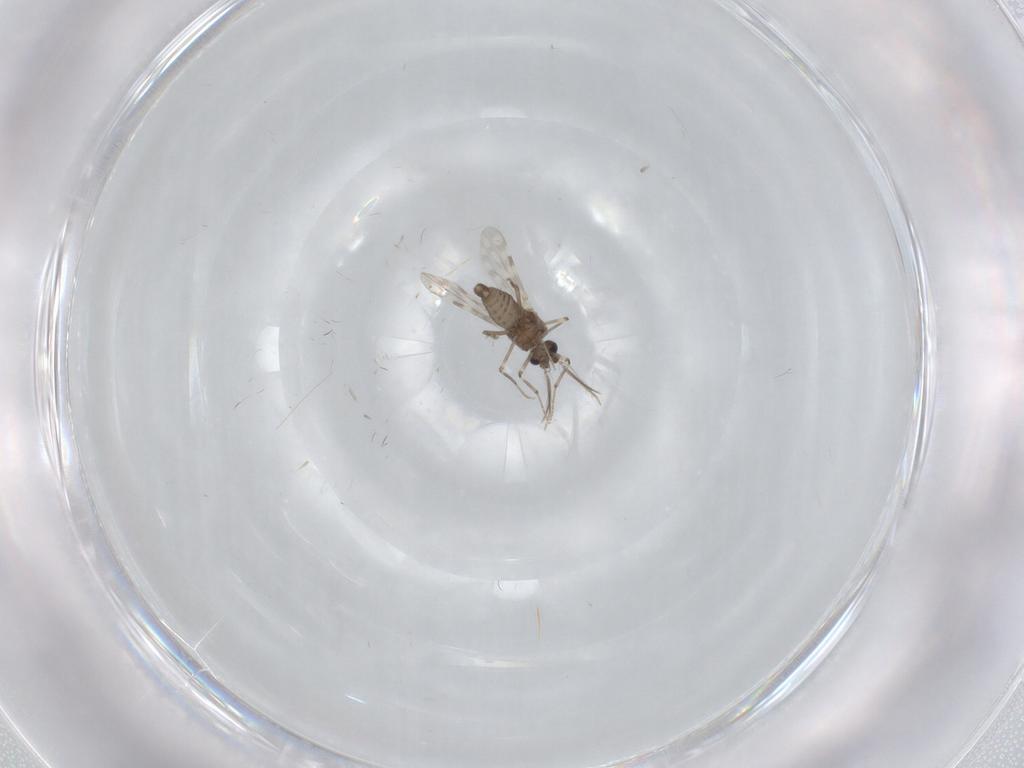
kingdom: Animalia
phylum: Arthropoda
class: Insecta
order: Diptera
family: Ceratopogonidae
